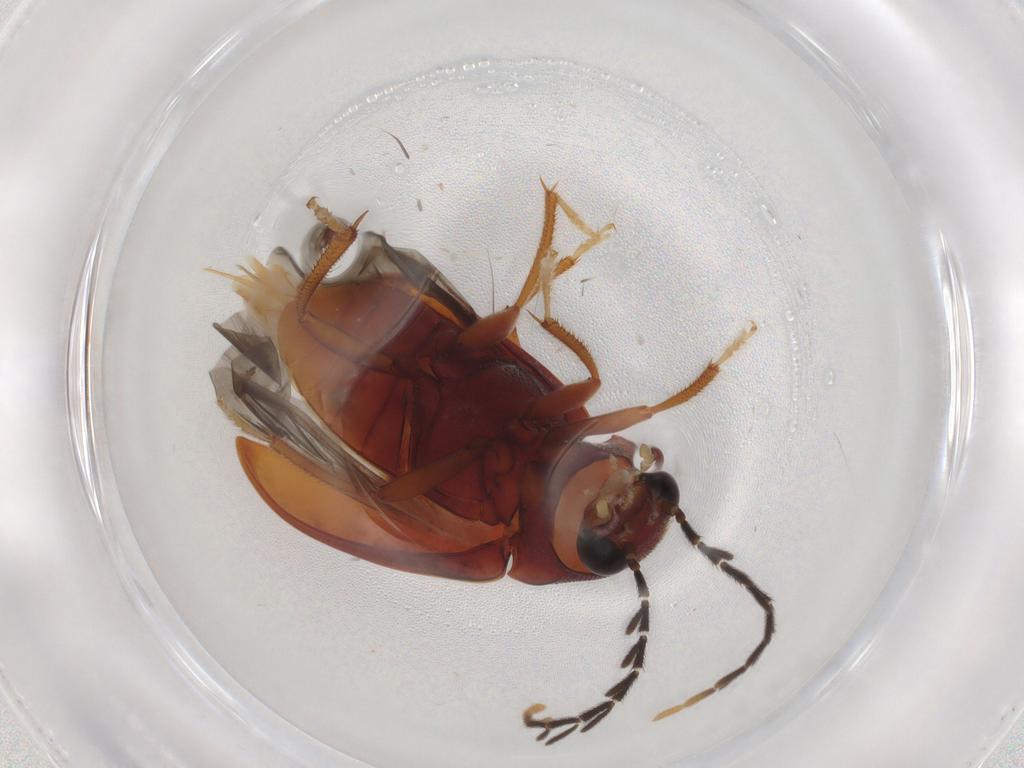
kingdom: Animalia
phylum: Arthropoda
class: Insecta
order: Coleoptera
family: Ptilodactylidae
